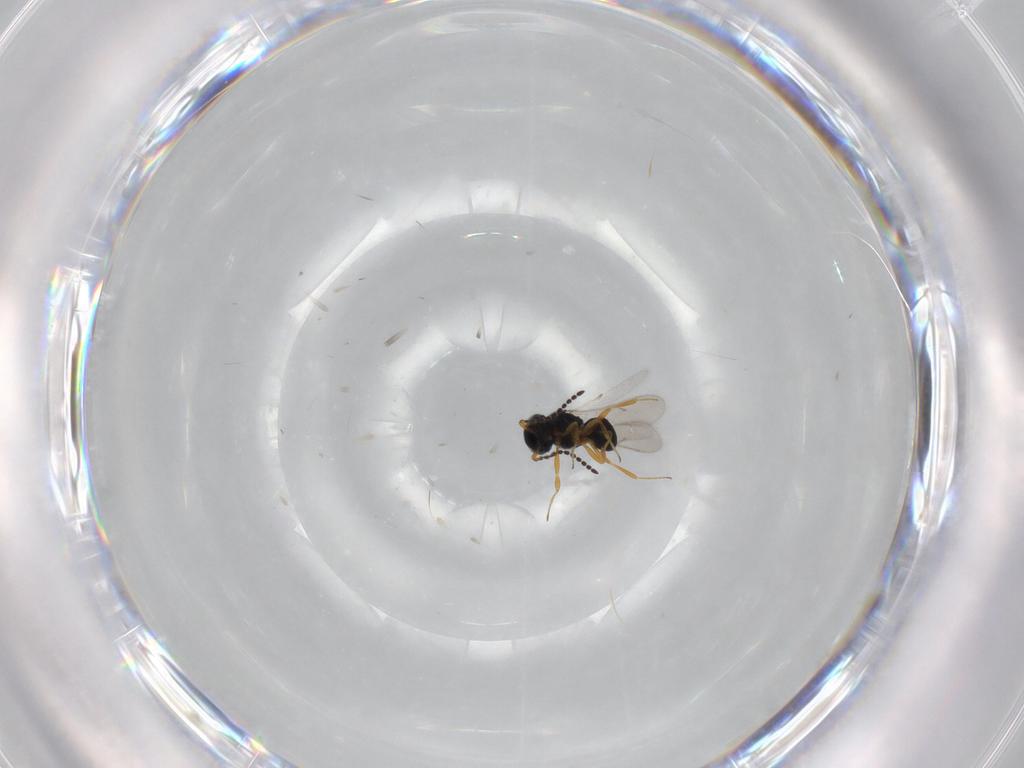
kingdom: Animalia
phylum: Arthropoda
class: Insecta
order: Hymenoptera
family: Scelionidae
